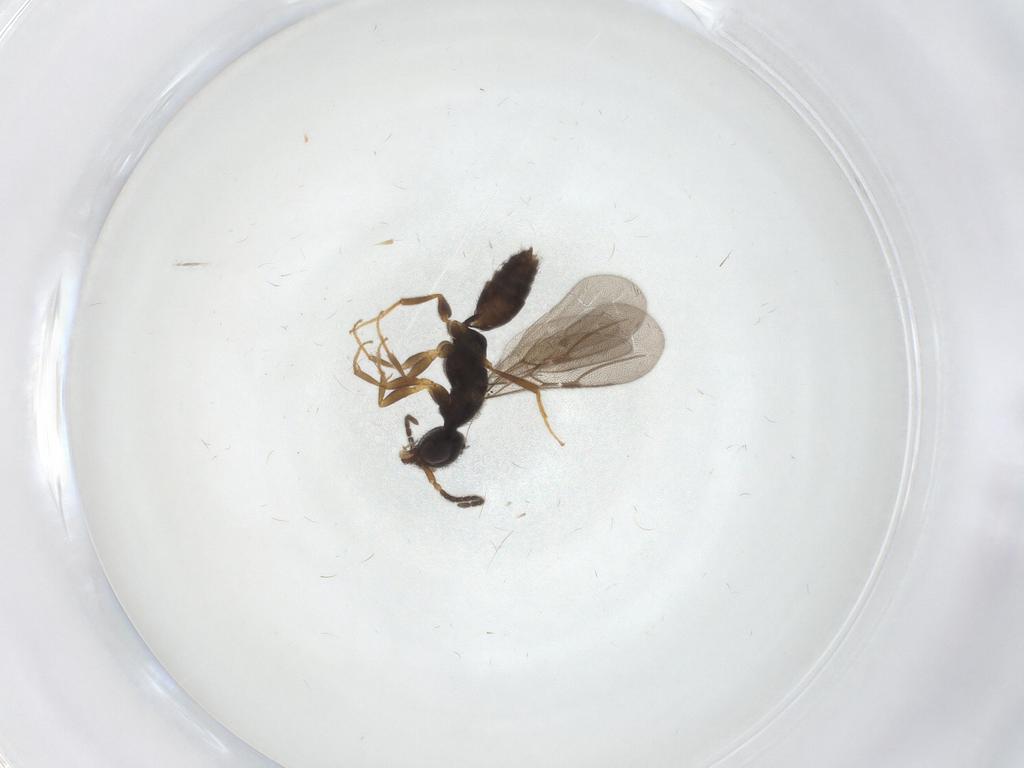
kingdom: Animalia
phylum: Arthropoda
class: Insecta
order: Hymenoptera
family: Bethylidae
